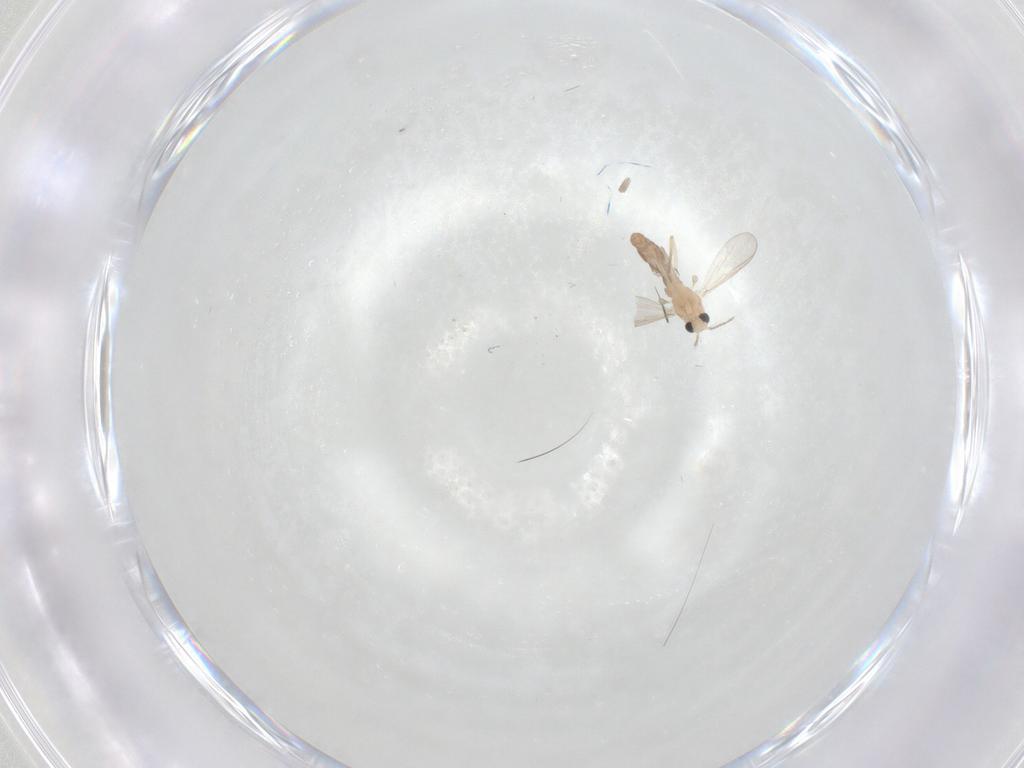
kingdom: Animalia
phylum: Arthropoda
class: Insecta
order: Diptera
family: Chironomidae
